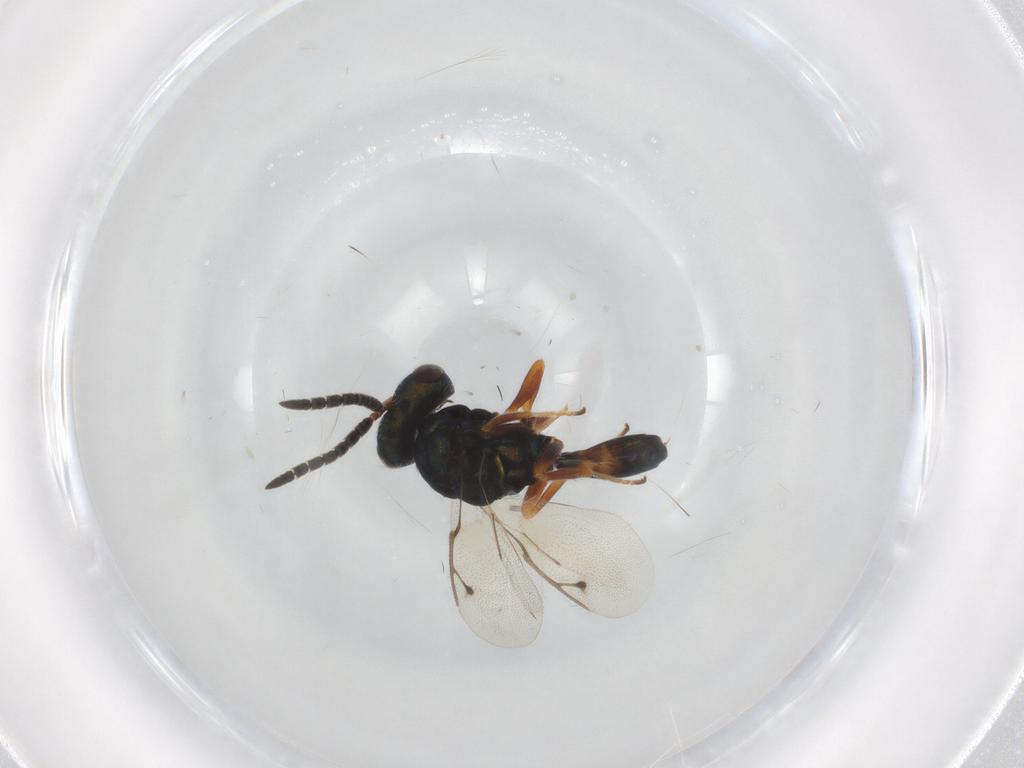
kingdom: Animalia
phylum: Arthropoda
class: Insecta
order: Hymenoptera
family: Pteromalidae
